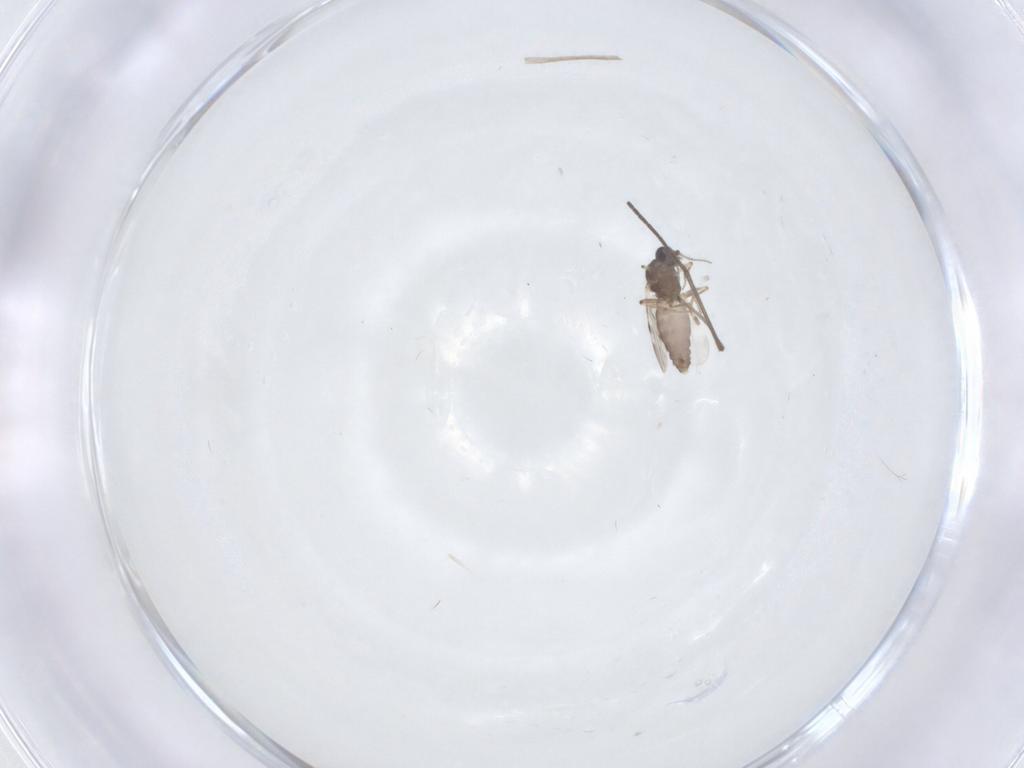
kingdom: Animalia
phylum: Arthropoda
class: Insecta
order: Diptera
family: Sciaridae
